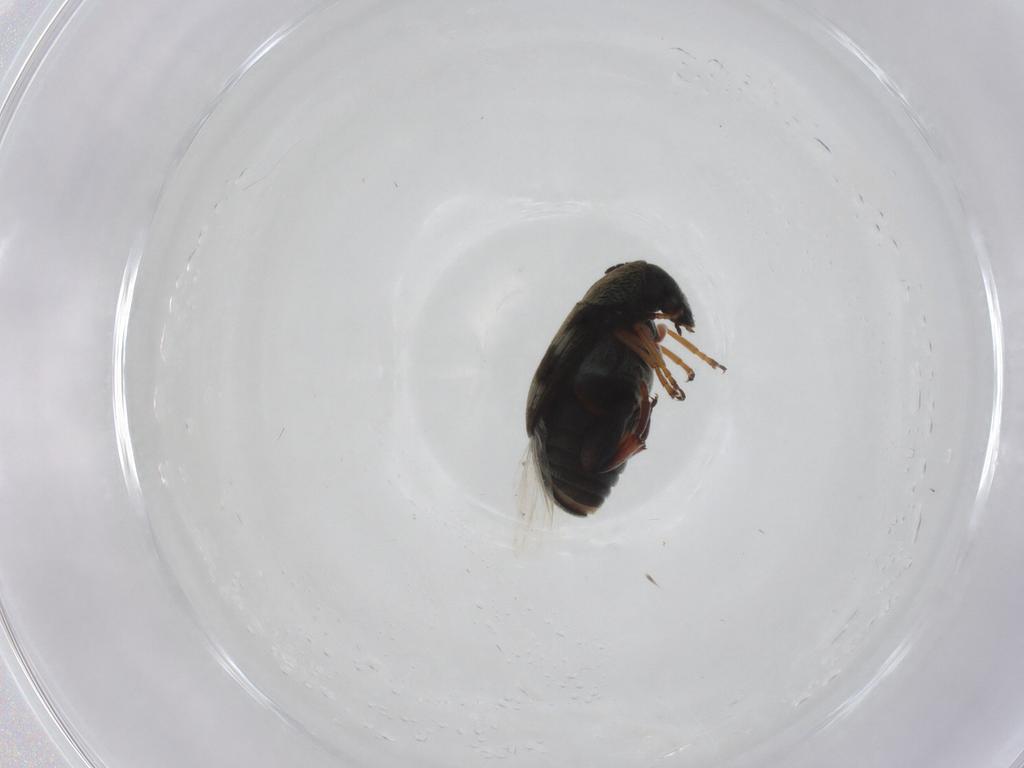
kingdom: Animalia
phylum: Arthropoda
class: Insecta
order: Coleoptera
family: Chrysomelidae
